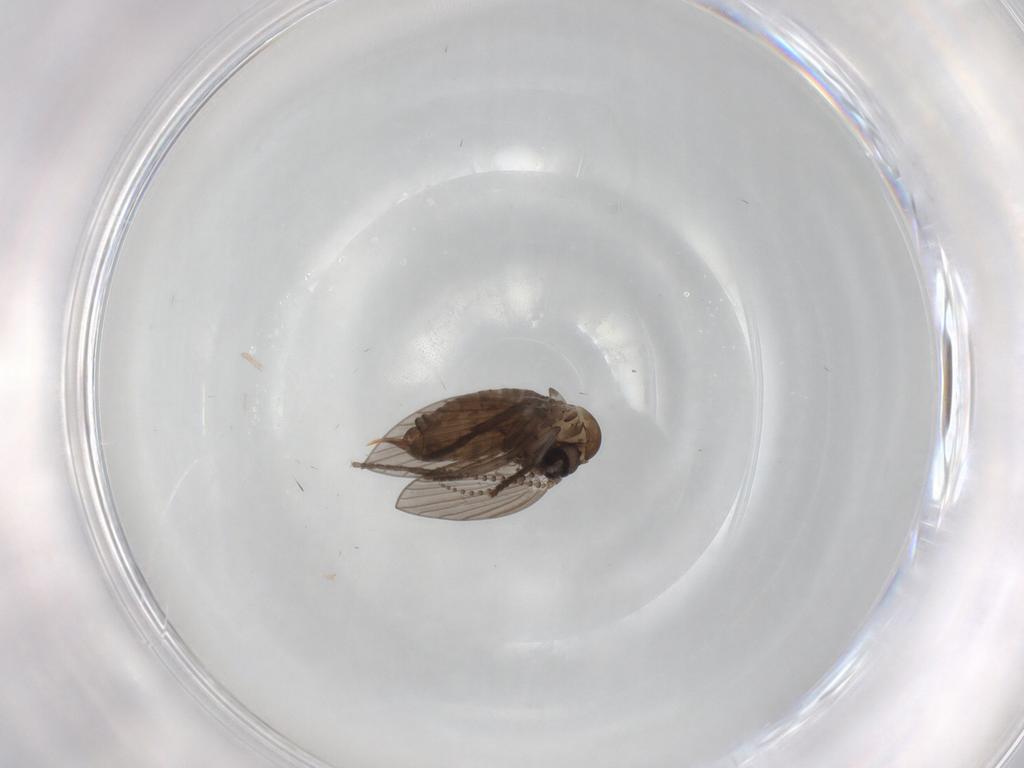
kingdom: Animalia
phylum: Arthropoda
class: Insecta
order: Diptera
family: Psychodidae
